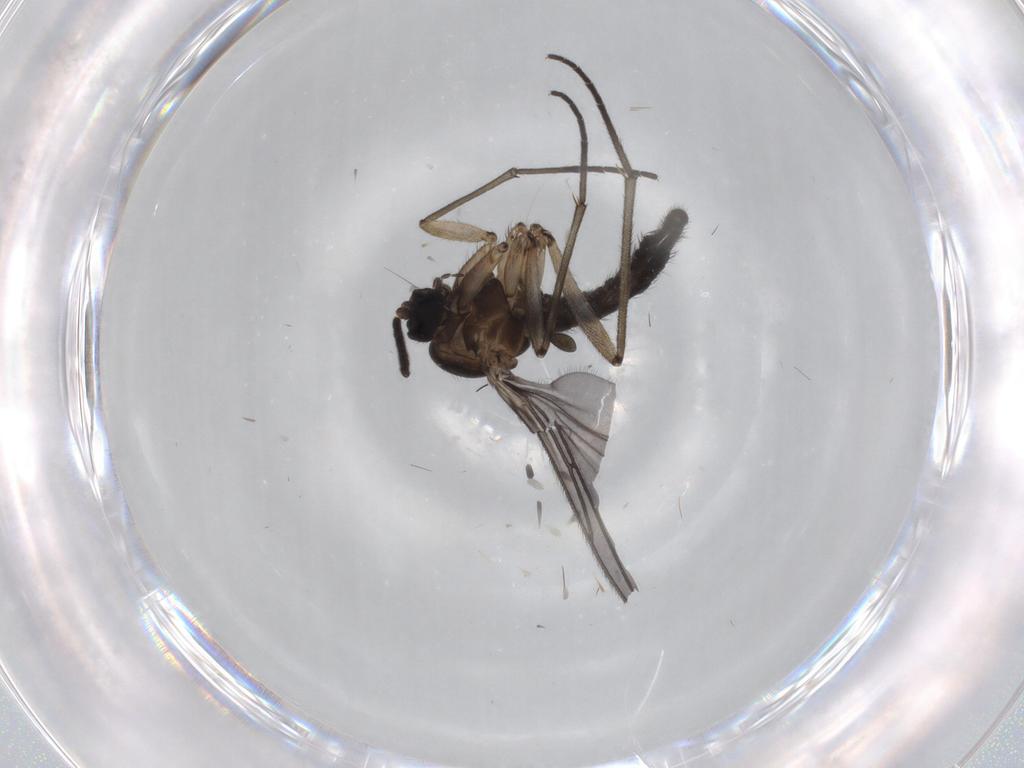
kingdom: Animalia
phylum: Arthropoda
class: Insecta
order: Diptera
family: Sciaridae
